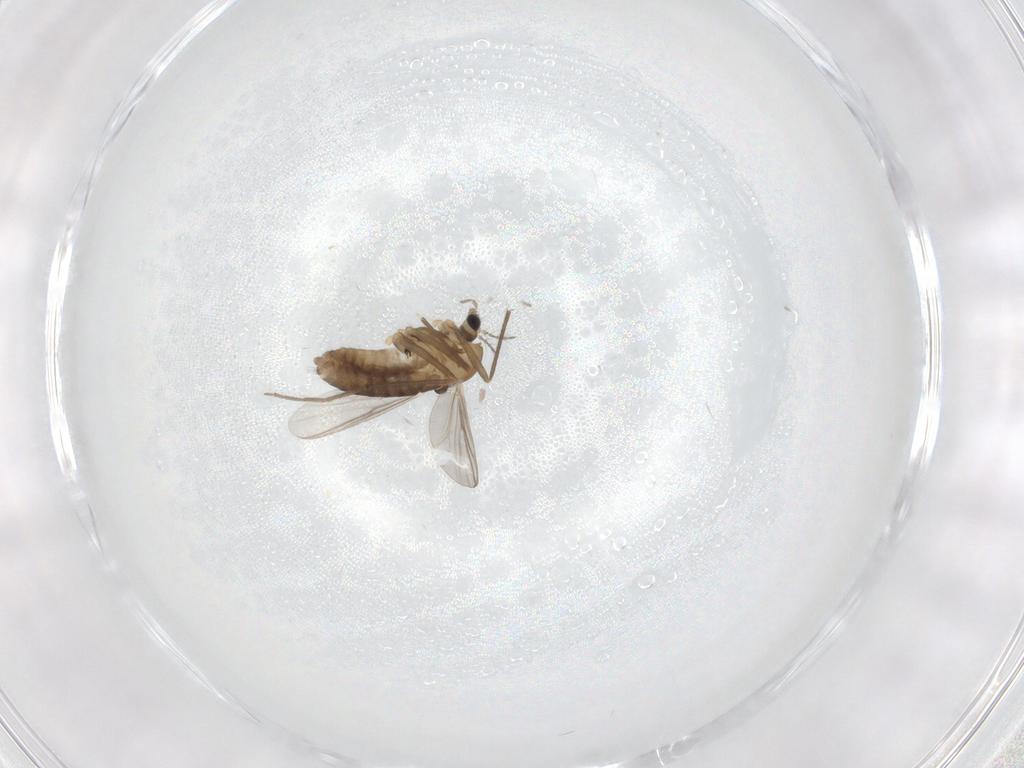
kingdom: Animalia
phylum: Arthropoda
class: Insecta
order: Diptera
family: Ceratopogonidae
